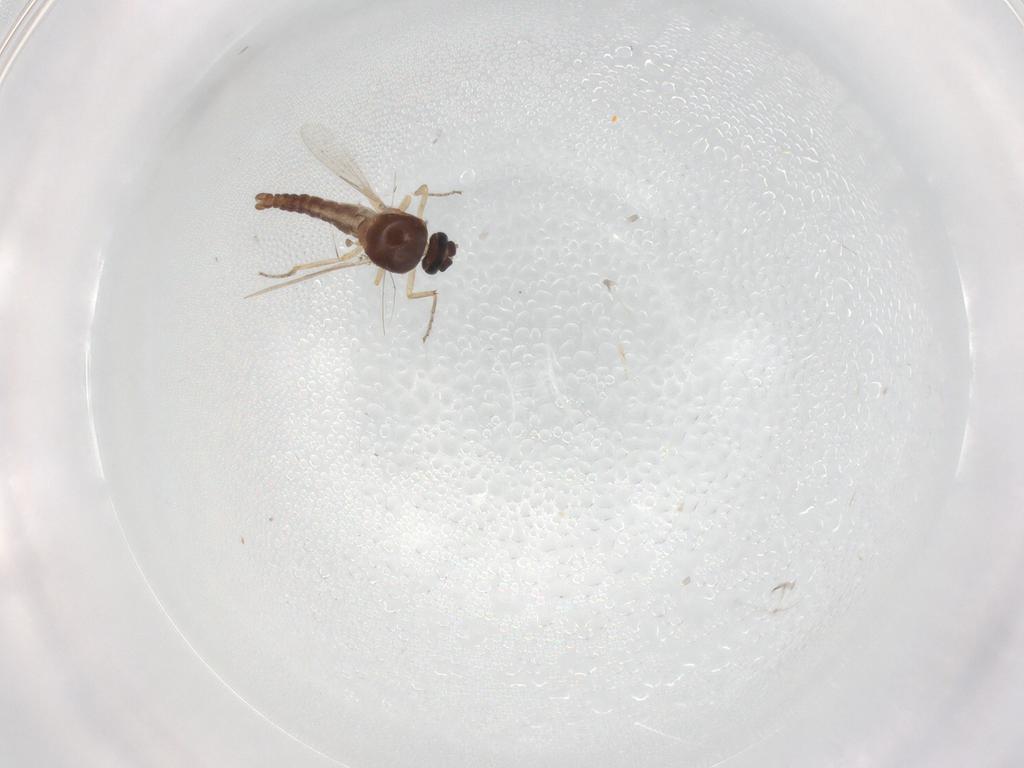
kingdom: Animalia
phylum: Arthropoda
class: Insecta
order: Diptera
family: Ceratopogonidae
